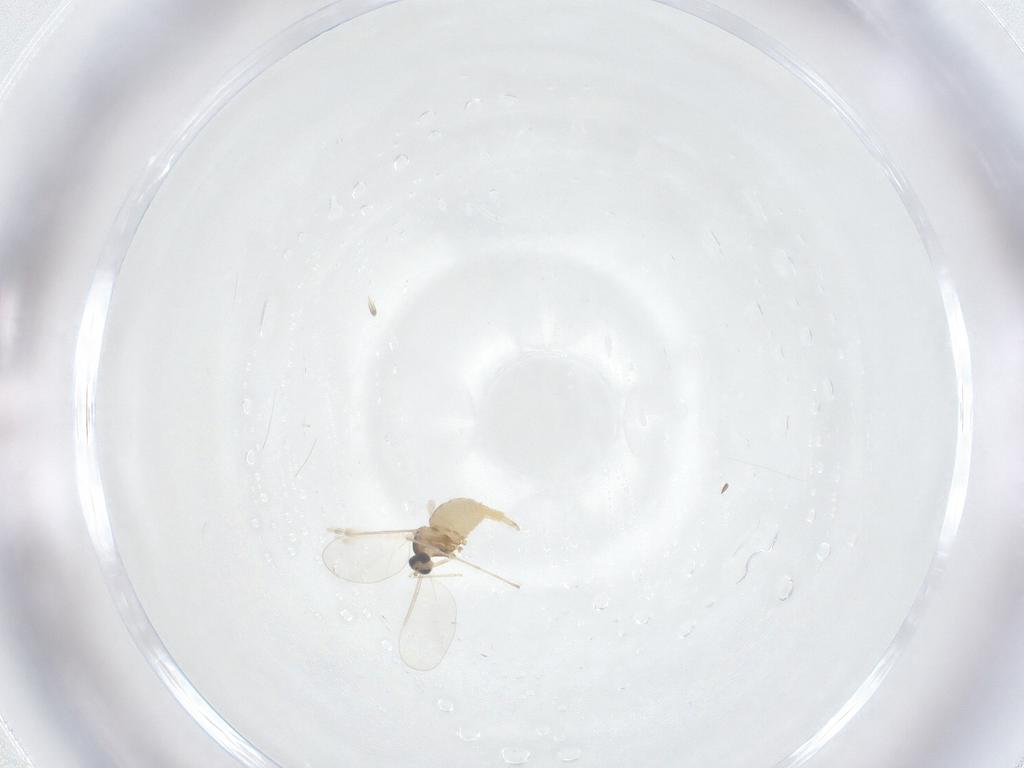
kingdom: Animalia
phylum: Arthropoda
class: Insecta
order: Diptera
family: Cecidomyiidae
